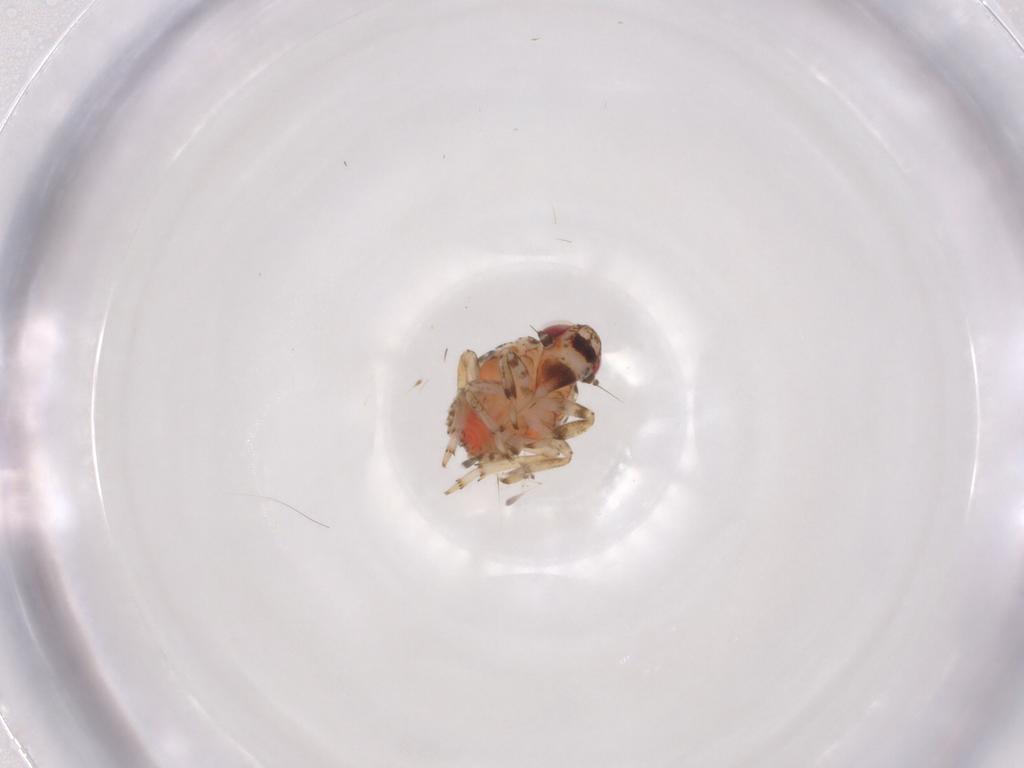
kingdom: Animalia
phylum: Arthropoda
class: Insecta
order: Hemiptera
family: Issidae
